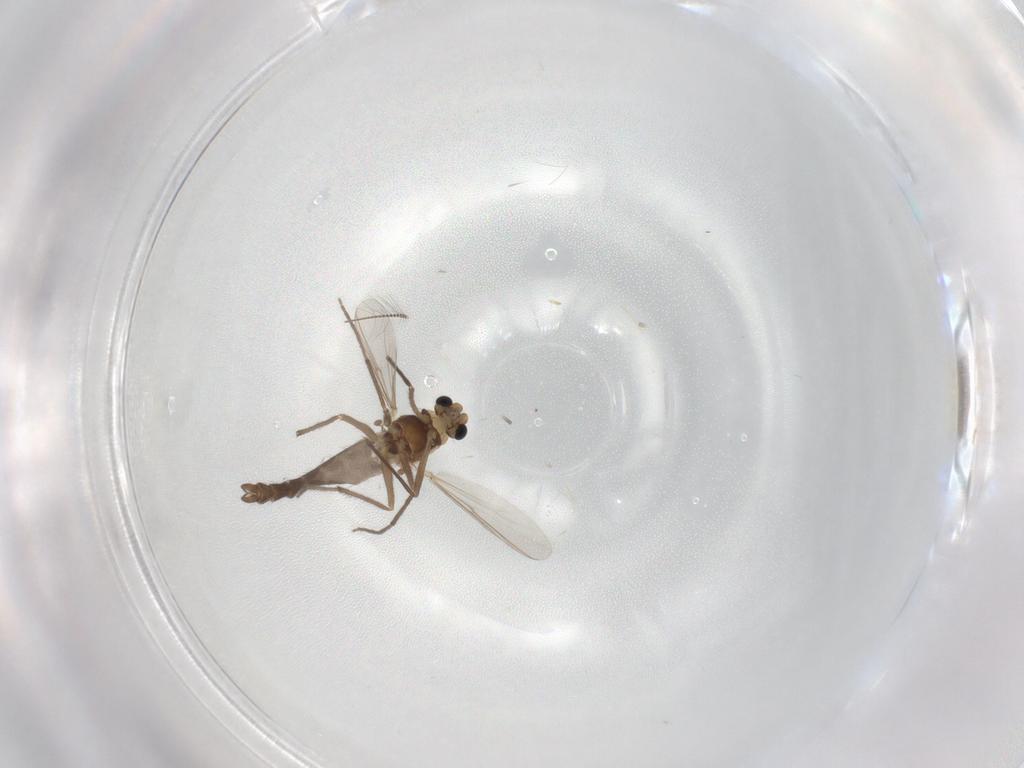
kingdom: Animalia
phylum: Arthropoda
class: Insecta
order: Diptera
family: Chironomidae
